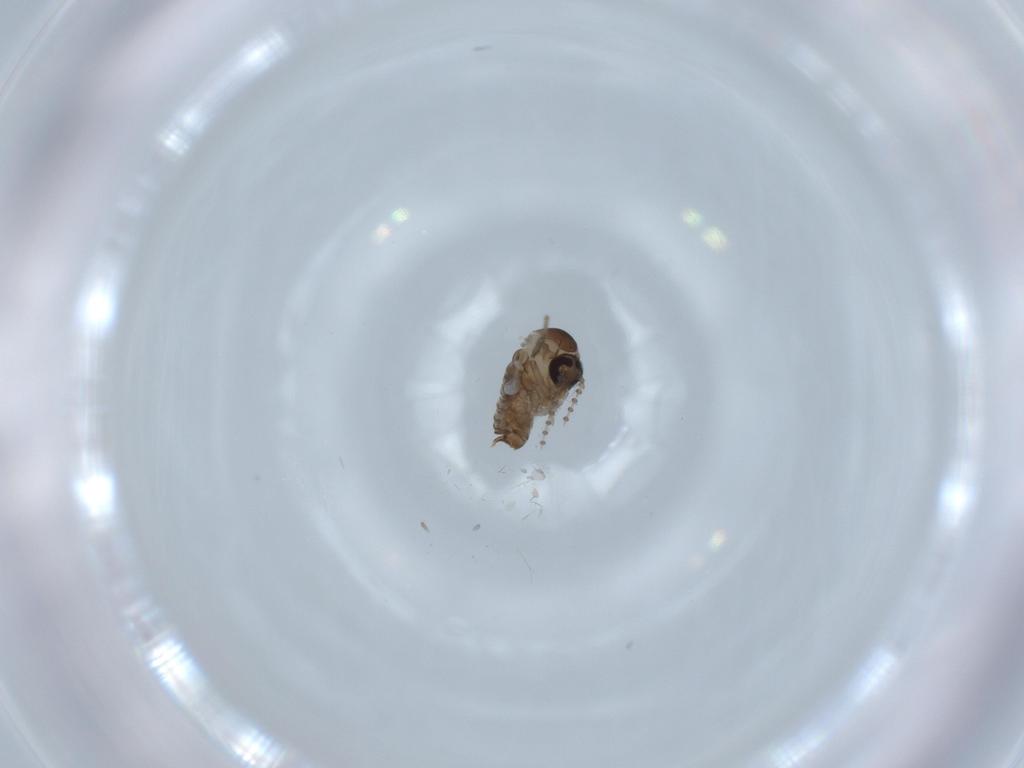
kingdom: Animalia
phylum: Arthropoda
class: Insecta
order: Diptera
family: Psychodidae
